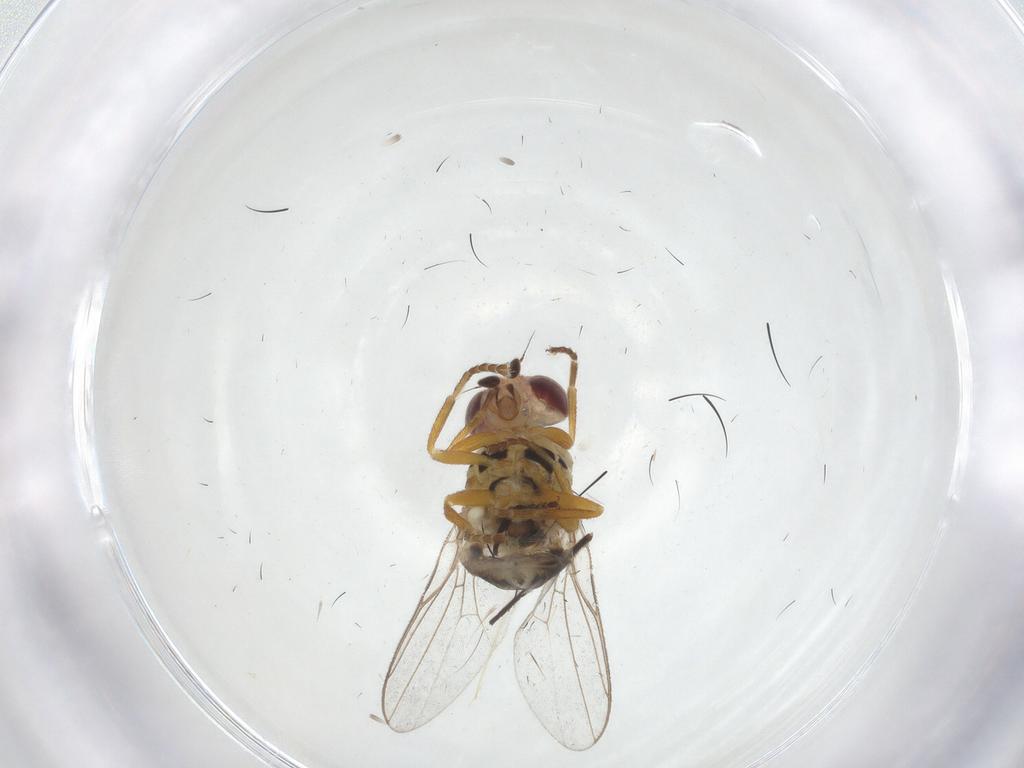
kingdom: Animalia
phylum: Arthropoda
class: Insecta
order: Diptera
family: Dolichopodidae
